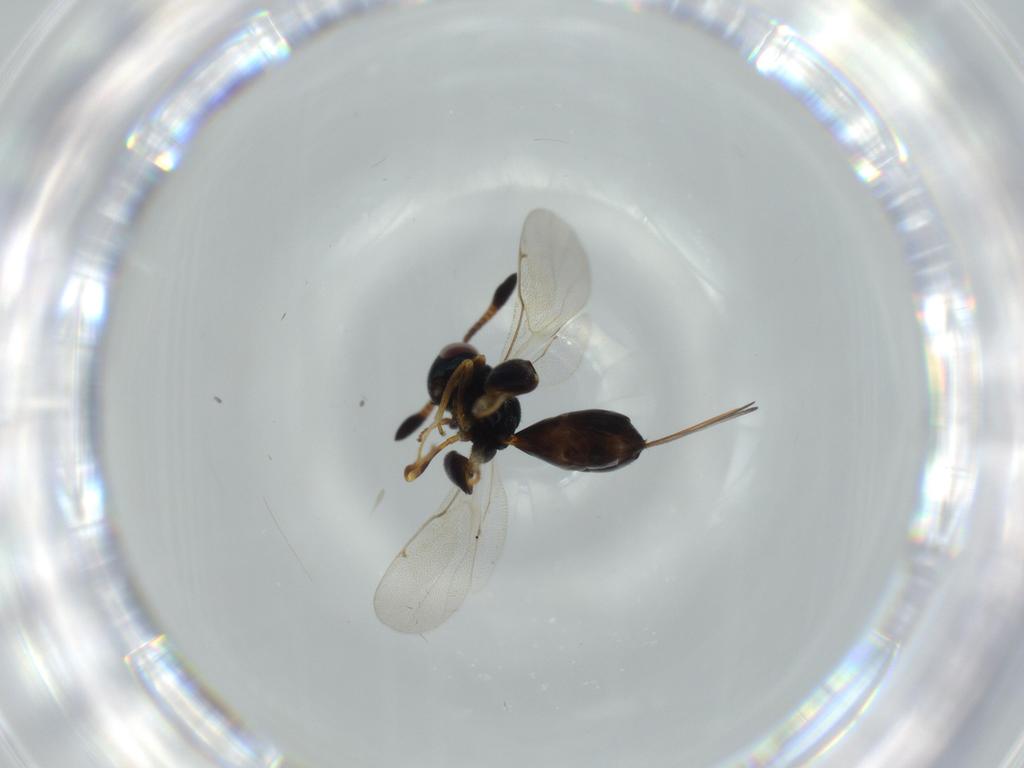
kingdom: Animalia
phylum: Arthropoda
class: Insecta
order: Hymenoptera
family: Torymidae
